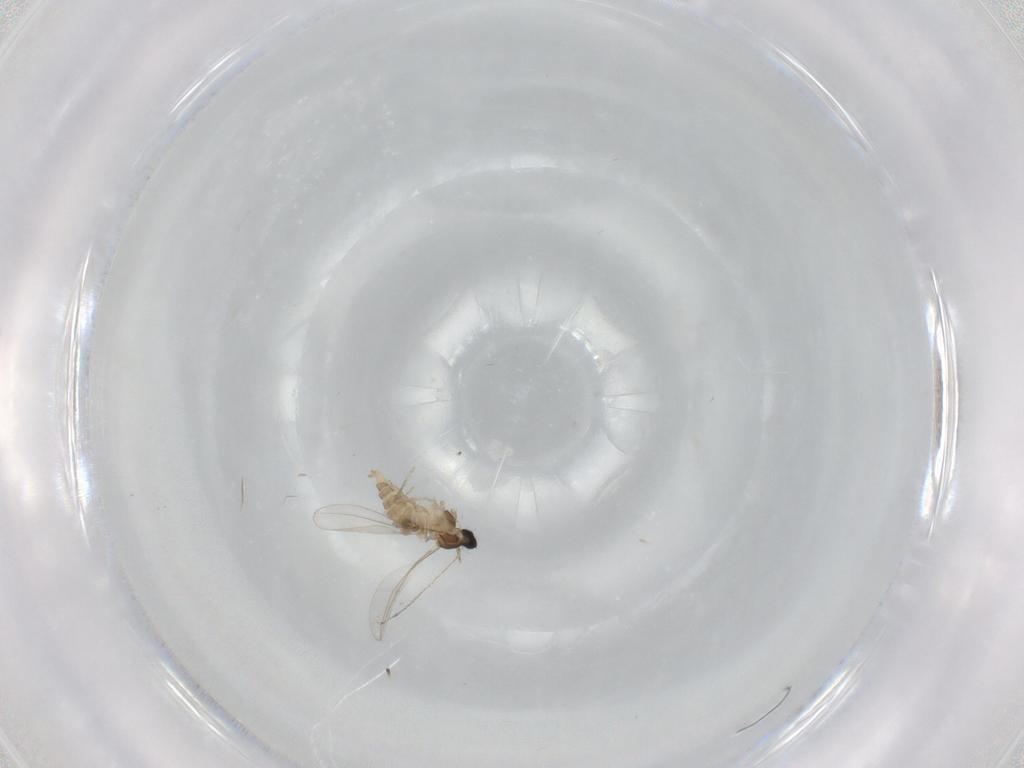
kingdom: Animalia
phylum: Arthropoda
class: Insecta
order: Diptera
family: Cecidomyiidae
